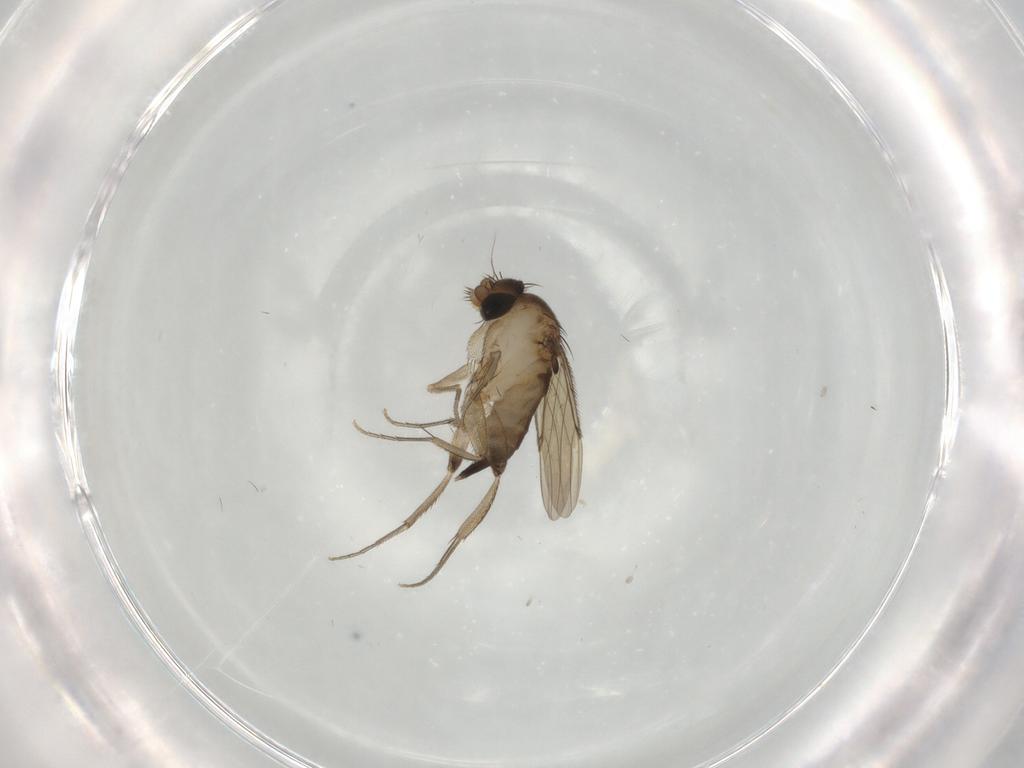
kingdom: Animalia
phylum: Arthropoda
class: Insecta
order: Diptera
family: Phoridae
